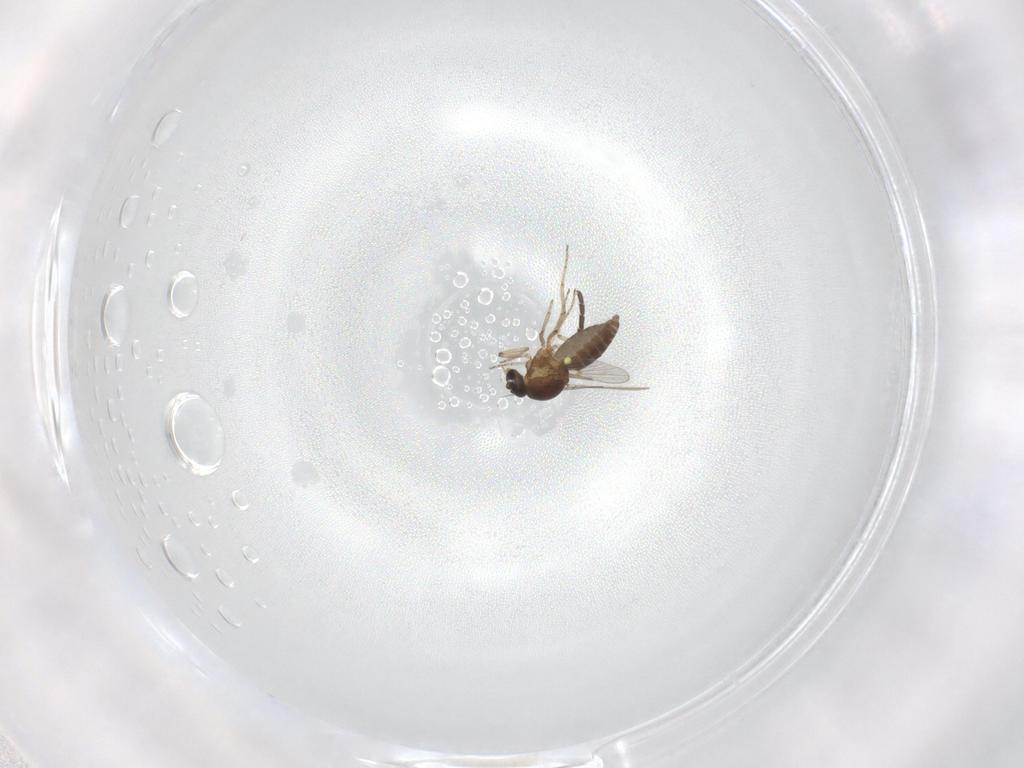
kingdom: Animalia
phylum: Arthropoda
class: Insecta
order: Diptera
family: Ceratopogonidae
